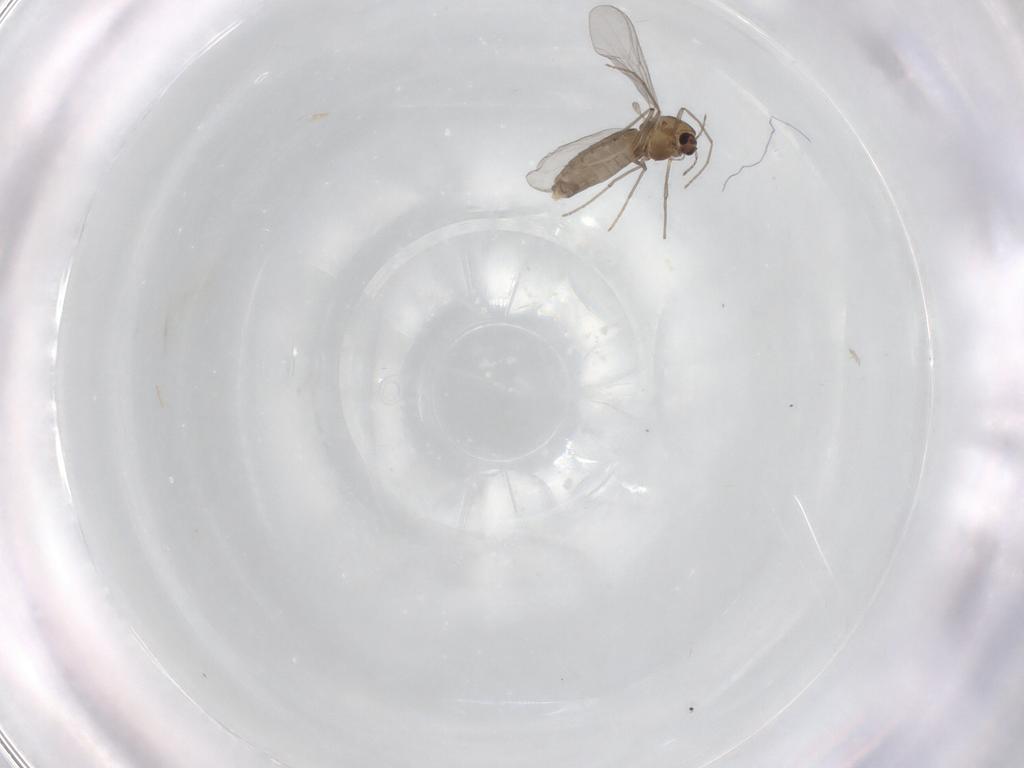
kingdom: Animalia
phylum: Arthropoda
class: Insecta
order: Diptera
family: Chironomidae
